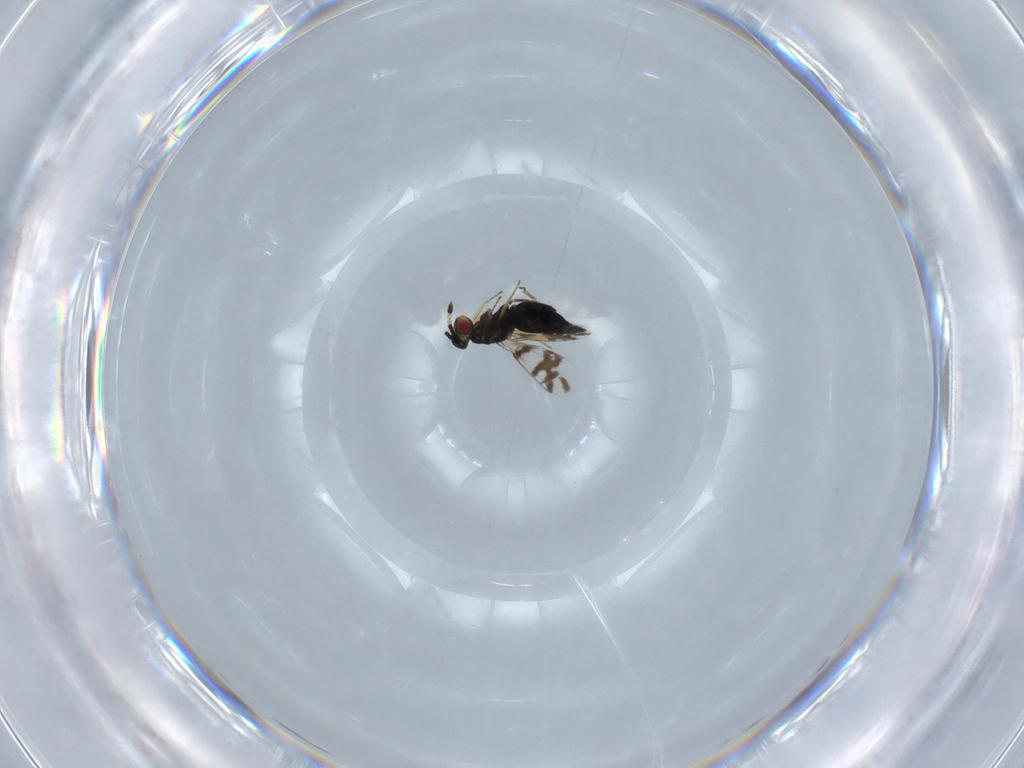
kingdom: Animalia
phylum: Arthropoda
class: Insecta
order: Hymenoptera
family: Eulophidae
